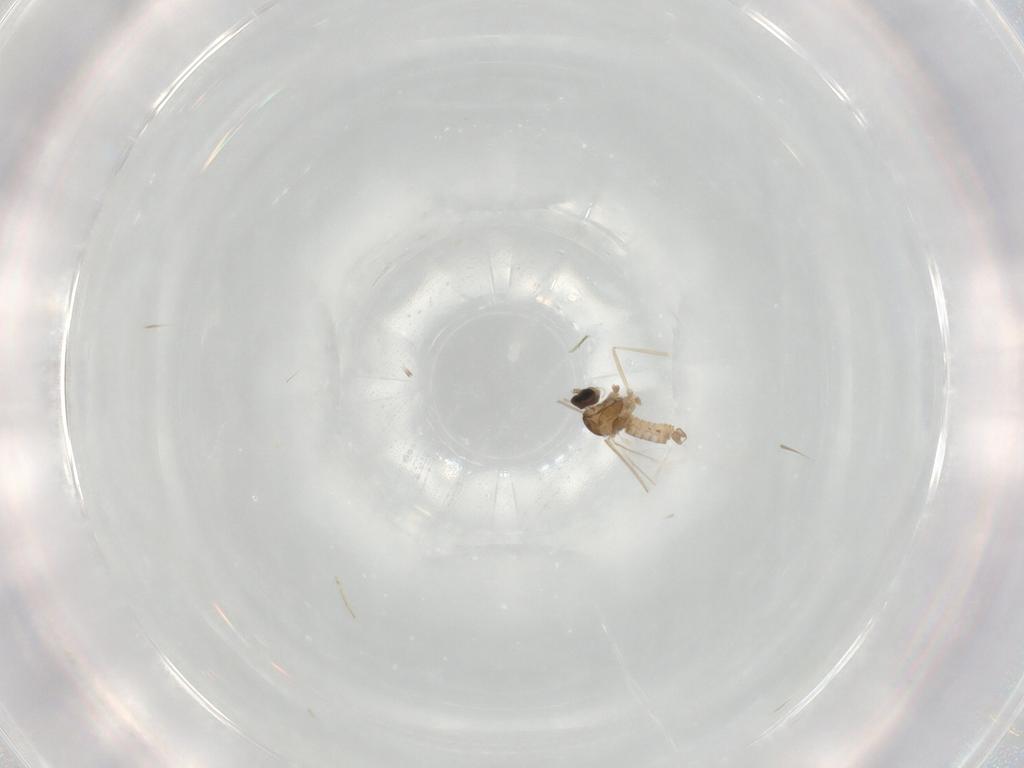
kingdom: Animalia
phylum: Arthropoda
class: Insecta
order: Diptera
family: Cecidomyiidae
